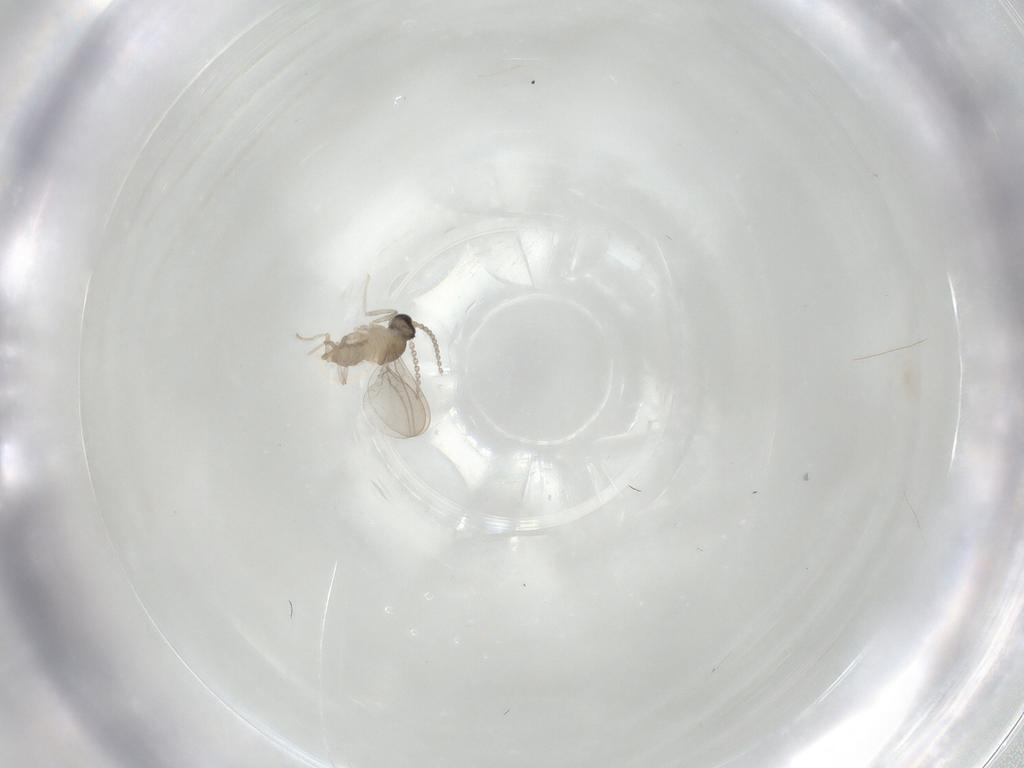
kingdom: Animalia
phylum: Arthropoda
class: Insecta
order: Diptera
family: Cecidomyiidae
